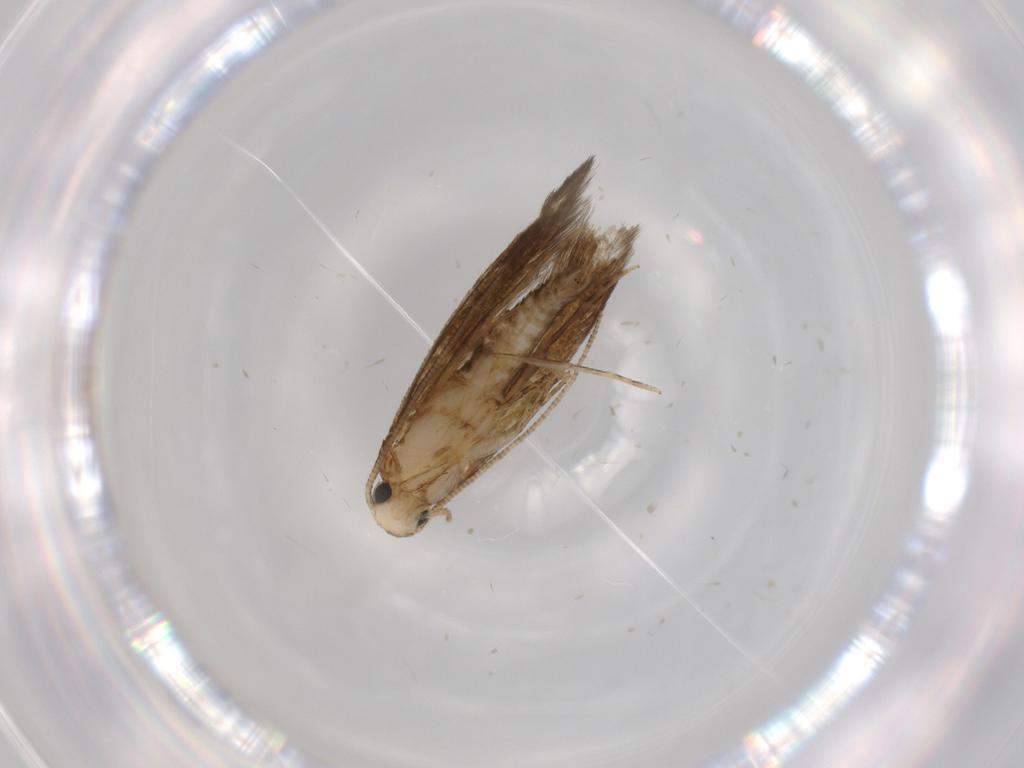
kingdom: Animalia
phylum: Arthropoda
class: Insecta
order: Lepidoptera
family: Tineidae
